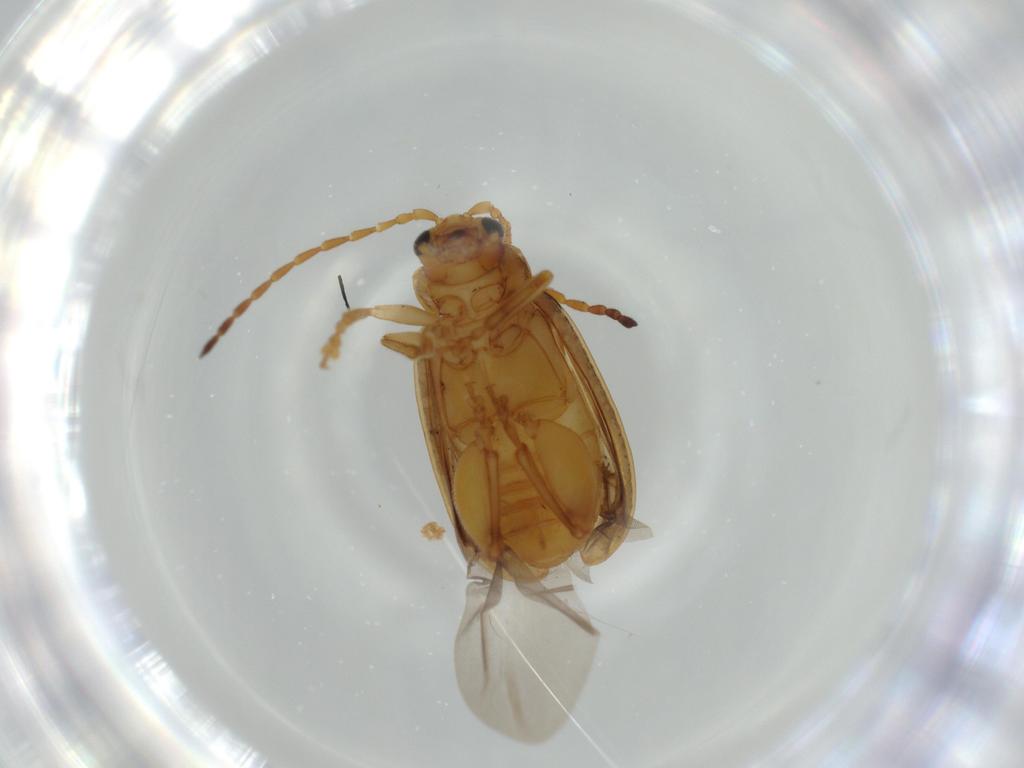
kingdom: Animalia
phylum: Arthropoda
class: Insecta
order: Coleoptera
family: Anthicidae
